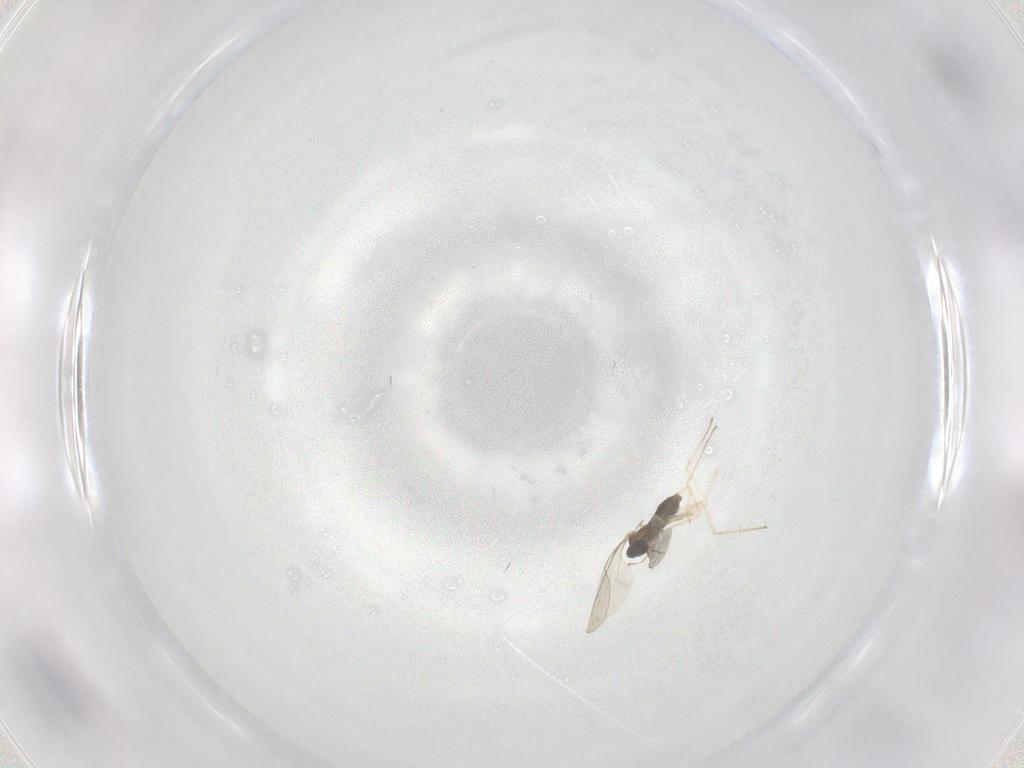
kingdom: Animalia
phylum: Arthropoda
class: Insecta
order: Diptera
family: Cecidomyiidae
